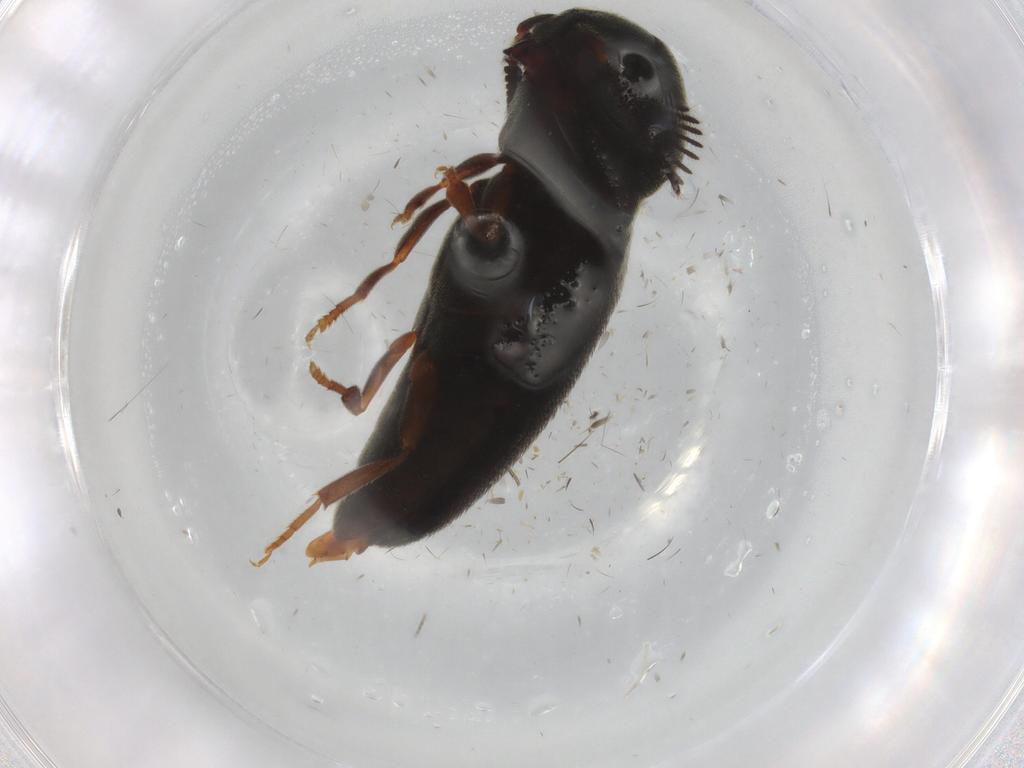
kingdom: Animalia
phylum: Arthropoda
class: Insecta
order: Coleoptera
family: Eucnemidae
